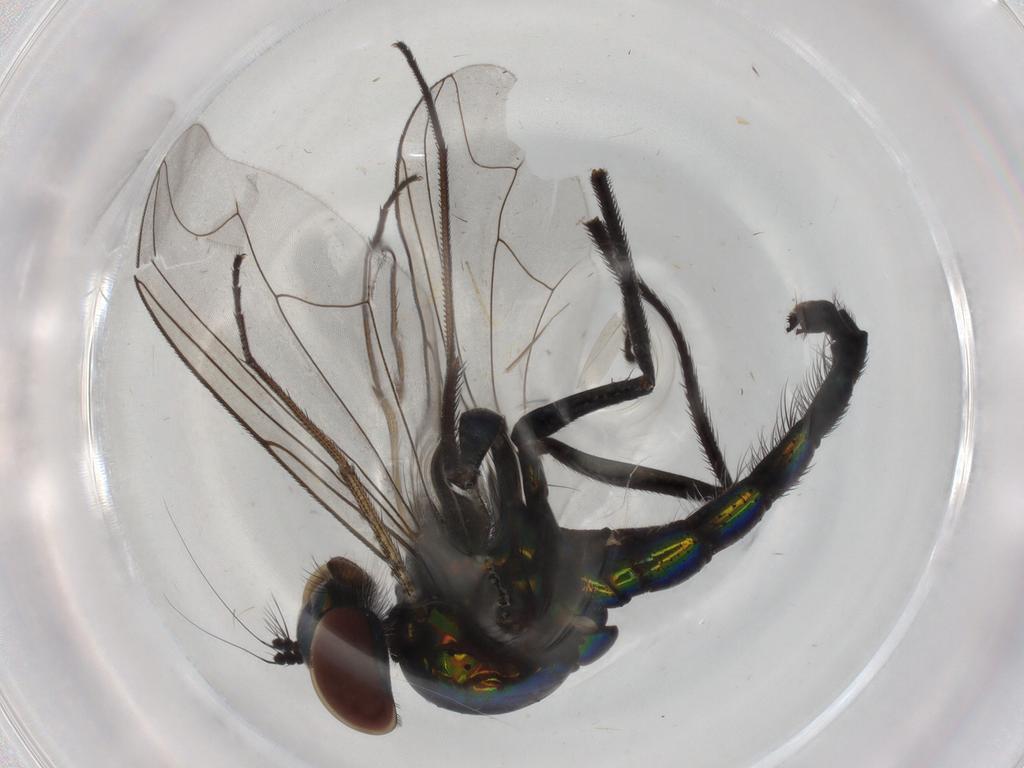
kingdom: Animalia
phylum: Arthropoda
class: Insecta
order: Diptera
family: Dolichopodidae
